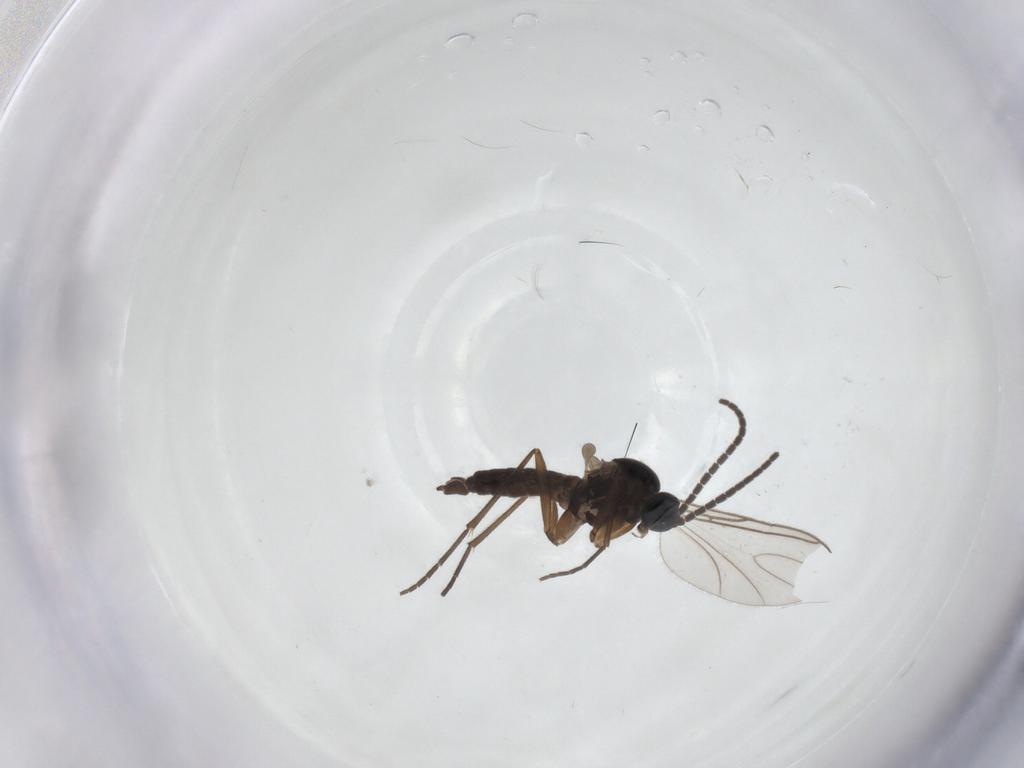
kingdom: Animalia
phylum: Arthropoda
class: Insecta
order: Diptera
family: Sciaridae
